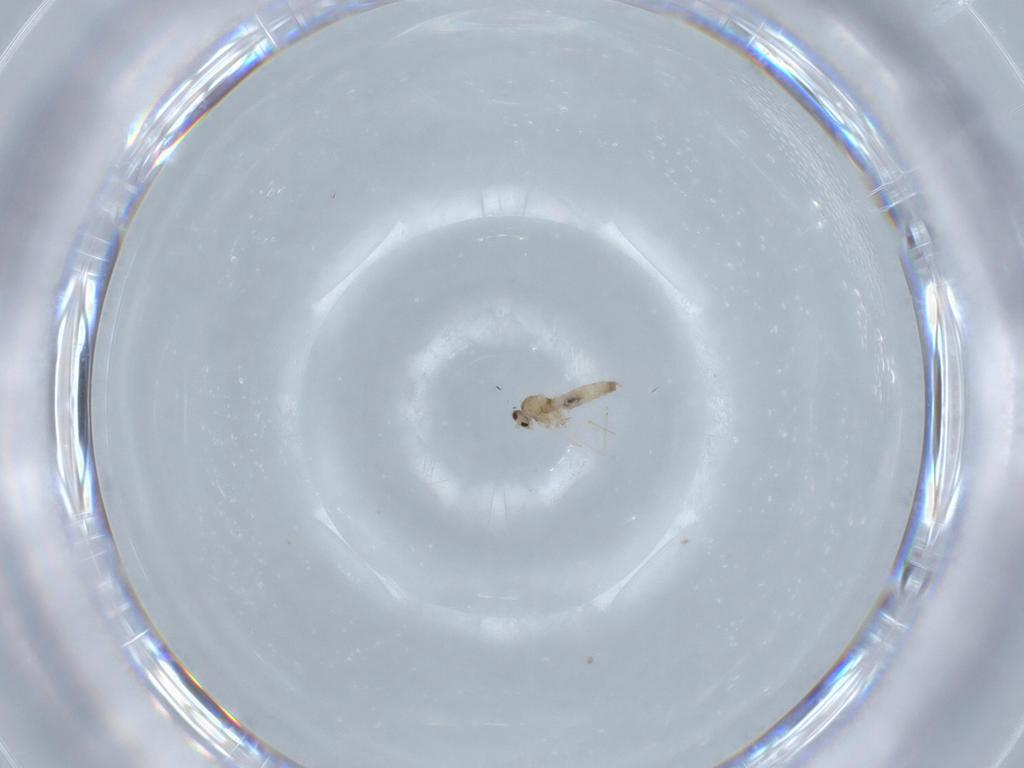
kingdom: Animalia
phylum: Arthropoda
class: Insecta
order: Diptera
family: Cecidomyiidae
